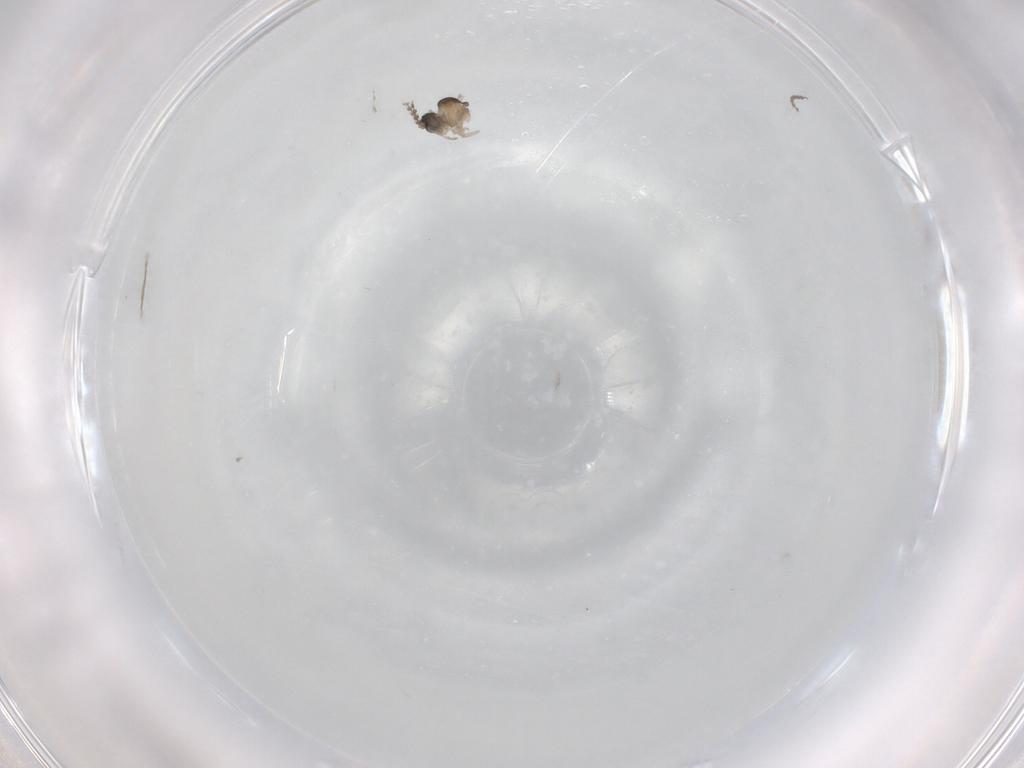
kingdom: Animalia
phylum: Arthropoda
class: Insecta
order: Diptera
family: Cecidomyiidae
